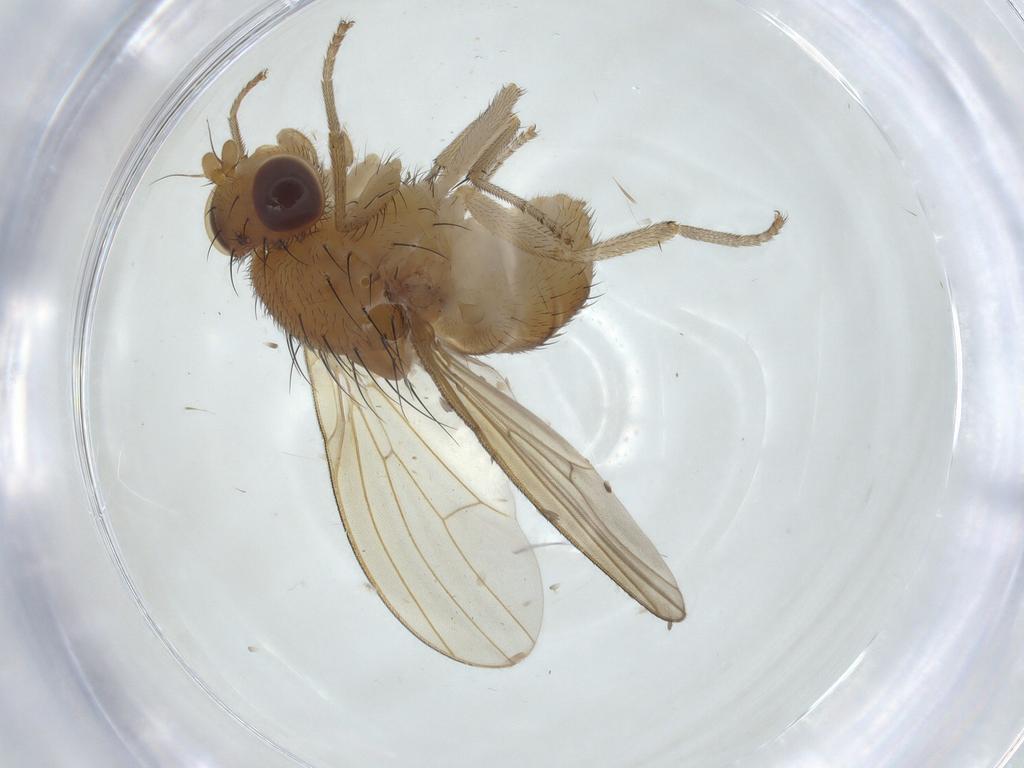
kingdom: Animalia
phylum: Arthropoda
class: Insecta
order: Diptera
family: Lauxaniidae
